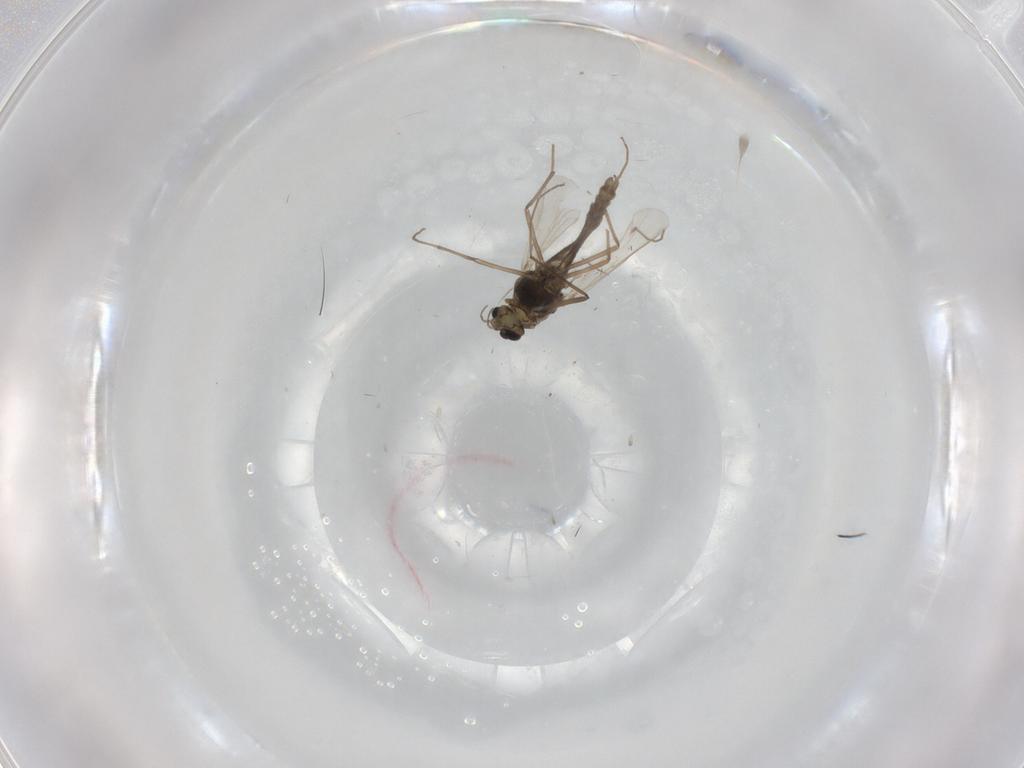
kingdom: Animalia
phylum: Arthropoda
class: Insecta
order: Diptera
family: Chironomidae
